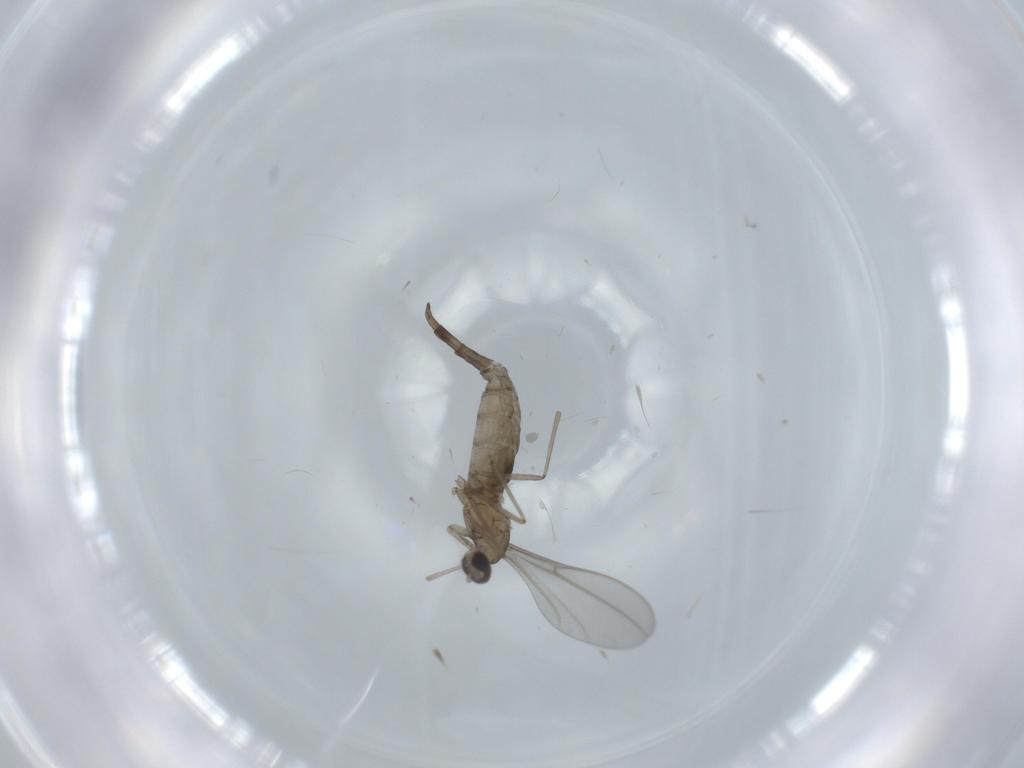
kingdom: Animalia
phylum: Arthropoda
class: Insecta
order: Diptera
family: Cecidomyiidae
